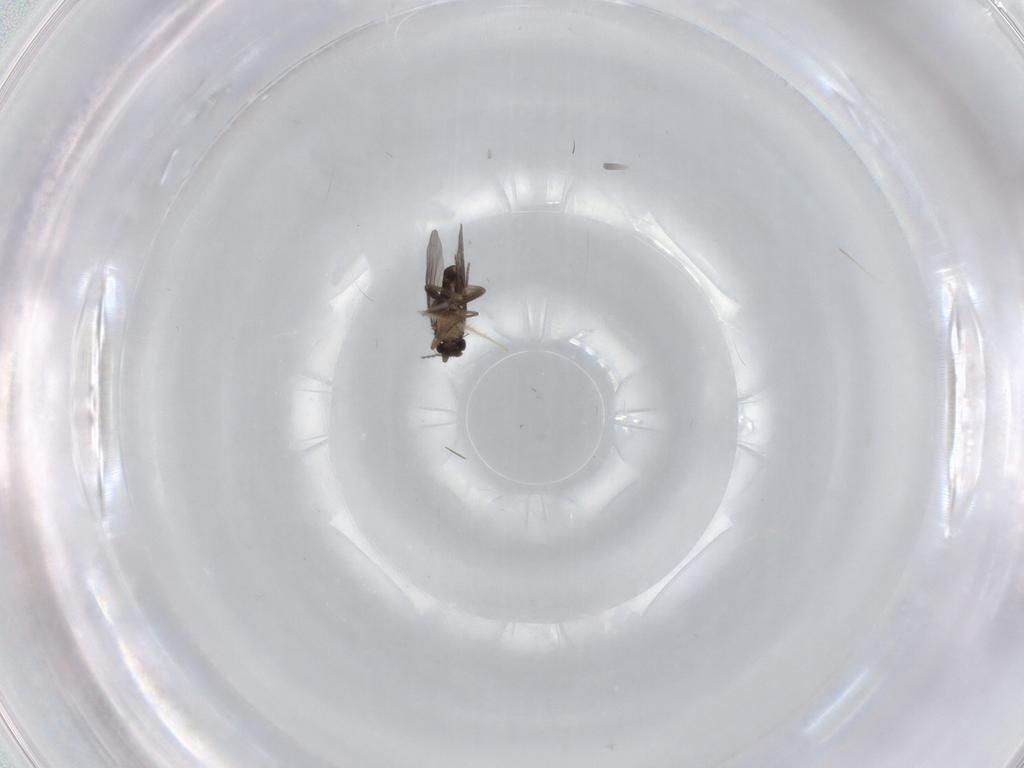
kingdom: Animalia
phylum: Arthropoda
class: Insecta
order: Diptera
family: Cecidomyiidae
